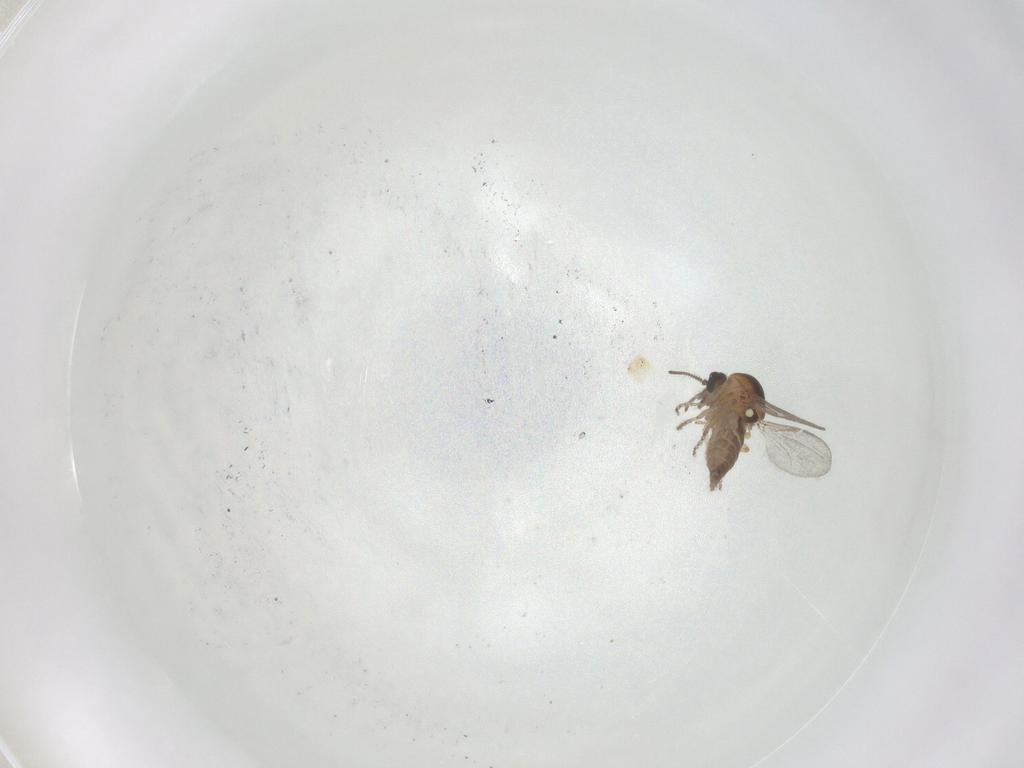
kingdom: Animalia
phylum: Arthropoda
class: Insecta
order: Diptera
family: Ceratopogonidae
